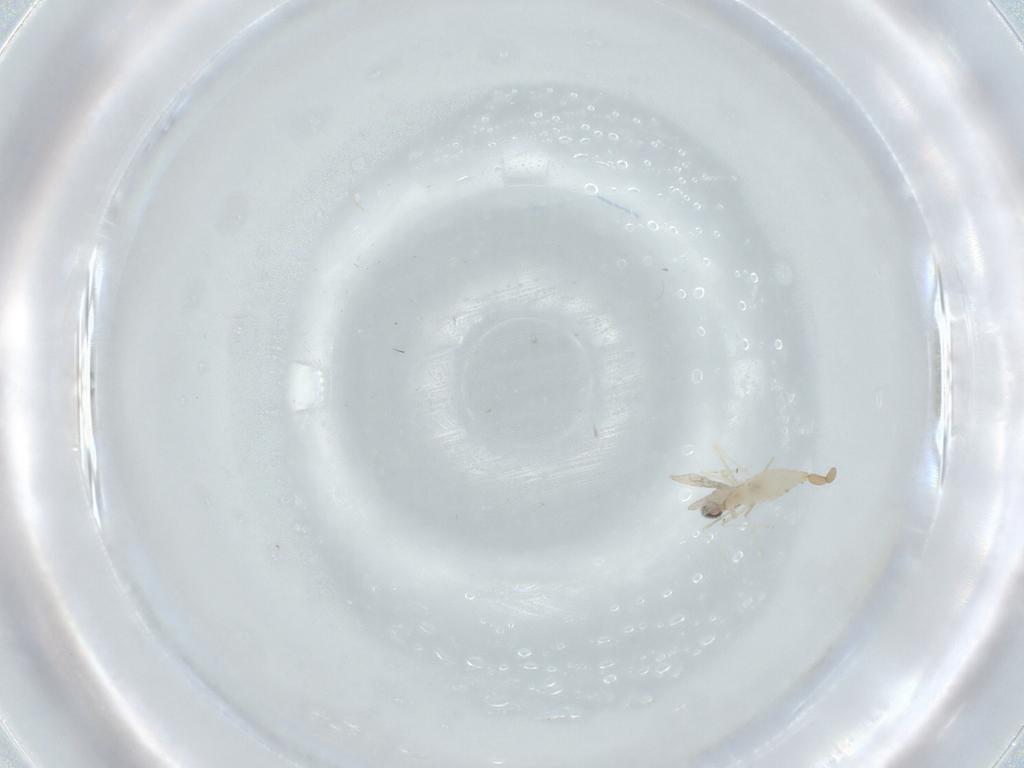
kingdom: Animalia
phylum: Arthropoda
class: Insecta
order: Diptera
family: Cecidomyiidae
